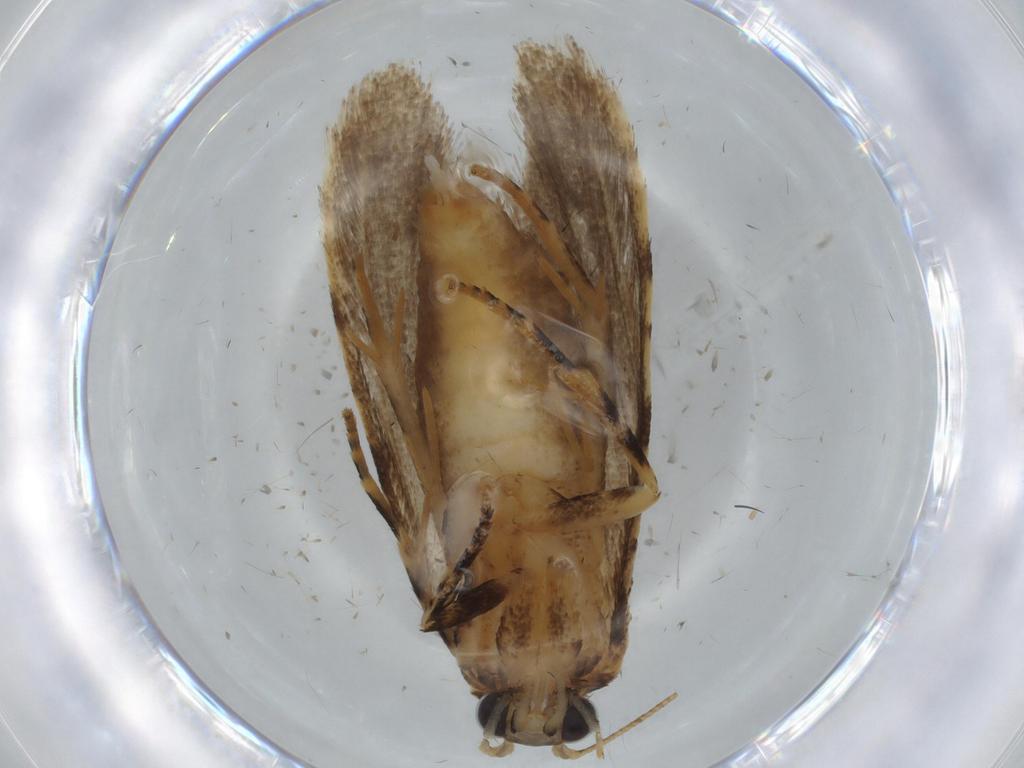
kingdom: Animalia
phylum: Arthropoda
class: Insecta
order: Lepidoptera
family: Tineidae
